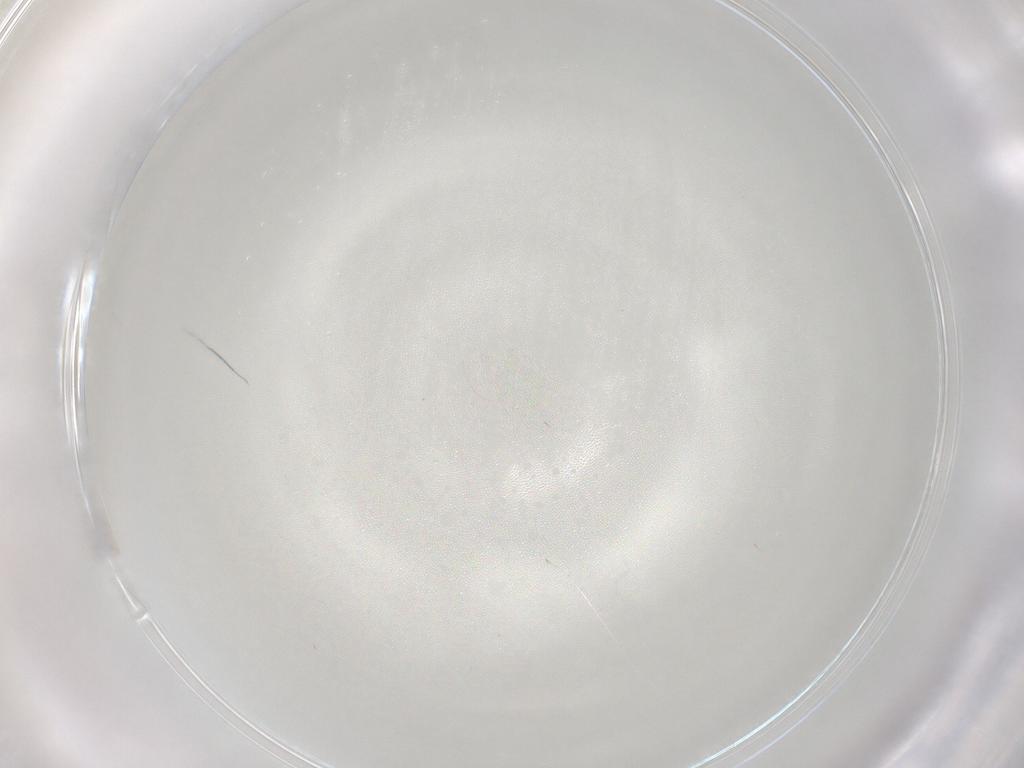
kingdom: Animalia
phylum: Arthropoda
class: Insecta
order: Diptera
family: Cecidomyiidae
